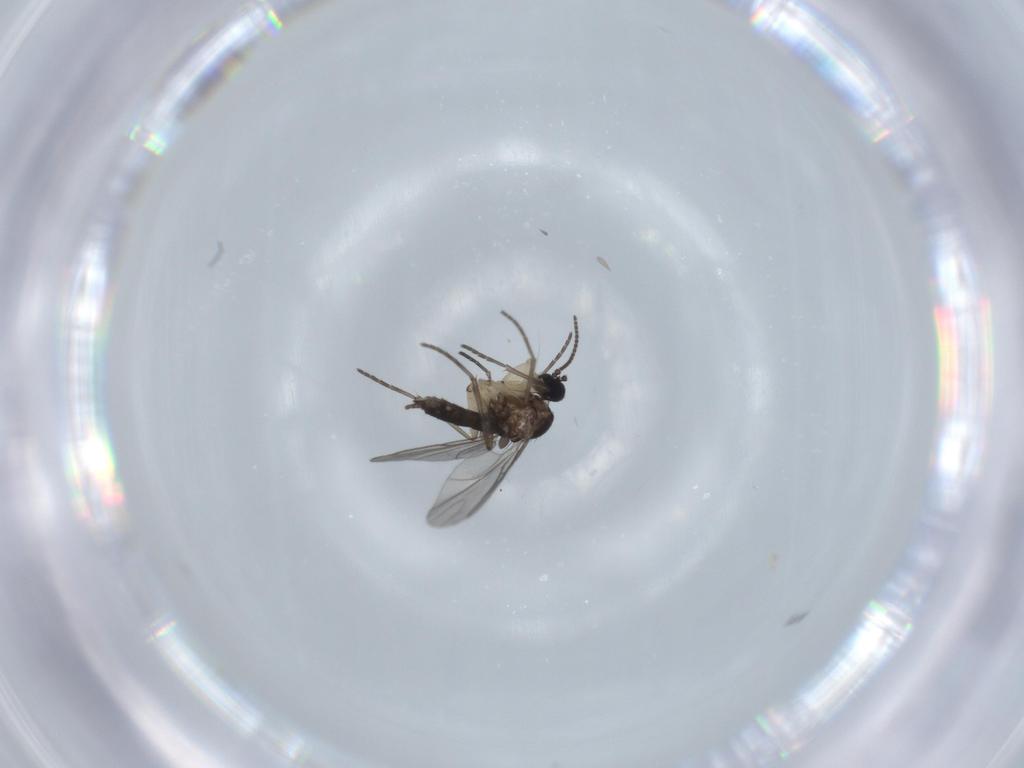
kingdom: Animalia
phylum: Arthropoda
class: Insecta
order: Diptera
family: Sciaridae
